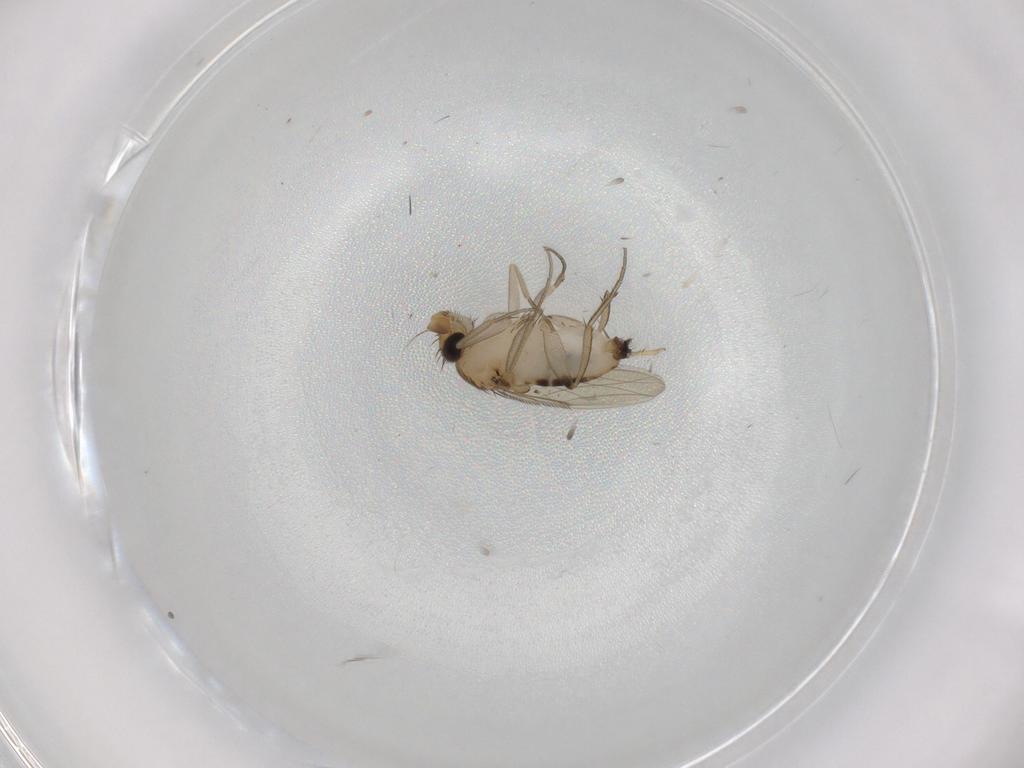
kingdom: Animalia
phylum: Arthropoda
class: Insecta
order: Diptera
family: Phoridae
